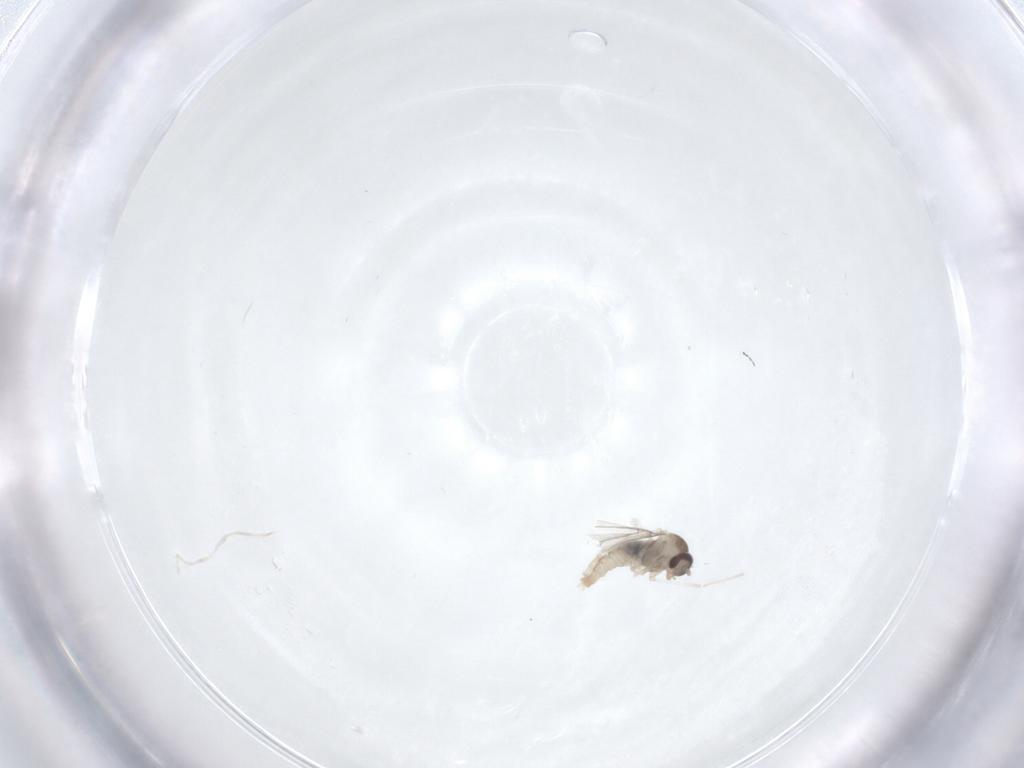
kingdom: Animalia
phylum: Arthropoda
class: Insecta
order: Diptera
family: Cecidomyiidae
